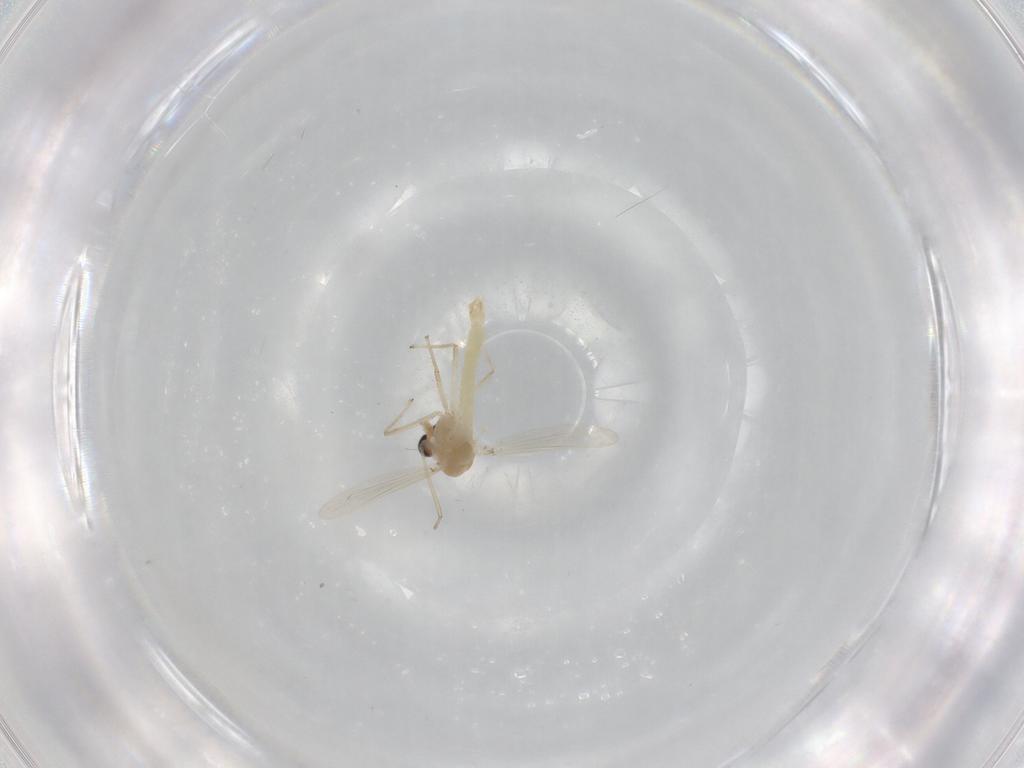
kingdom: Animalia
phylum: Arthropoda
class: Insecta
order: Diptera
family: Chironomidae
